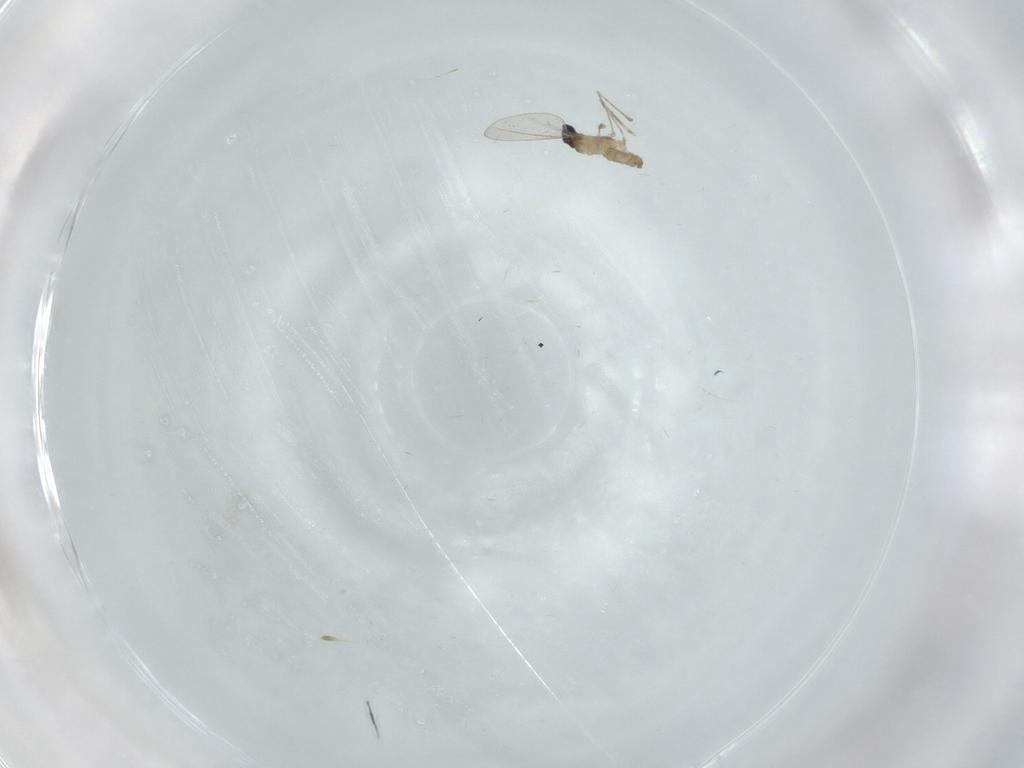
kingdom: Animalia
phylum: Arthropoda
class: Insecta
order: Diptera
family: Cecidomyiidae
